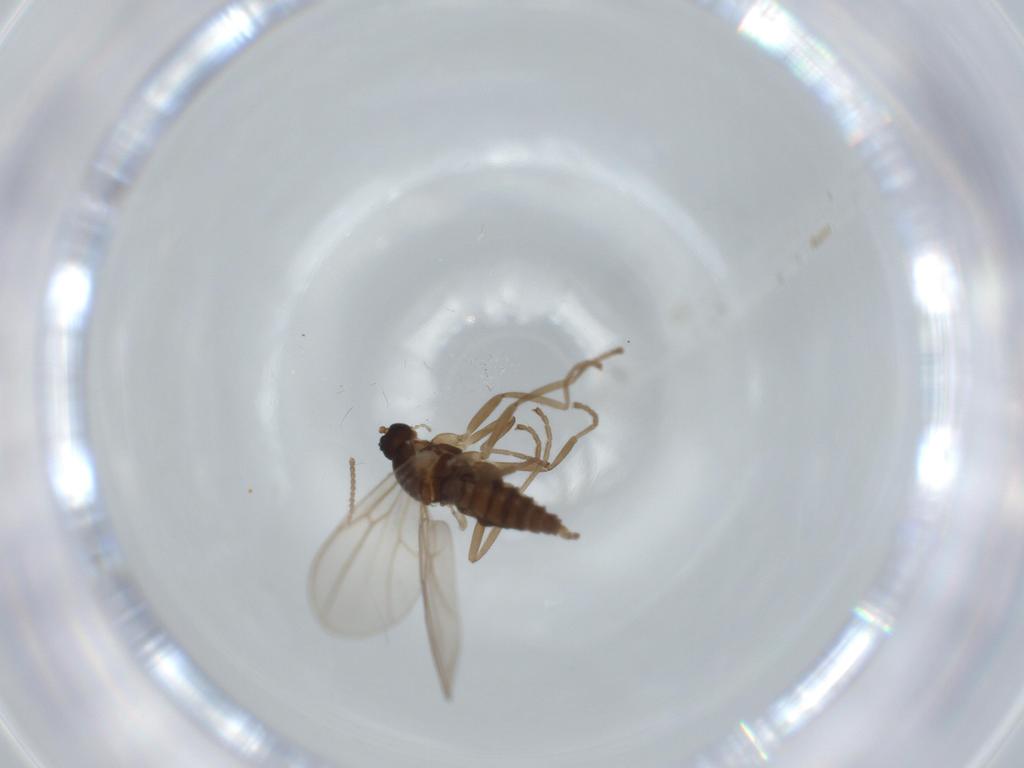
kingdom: Animalia
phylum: Arthropoda
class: Insecta
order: Diptera
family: Cecidomyiidae
